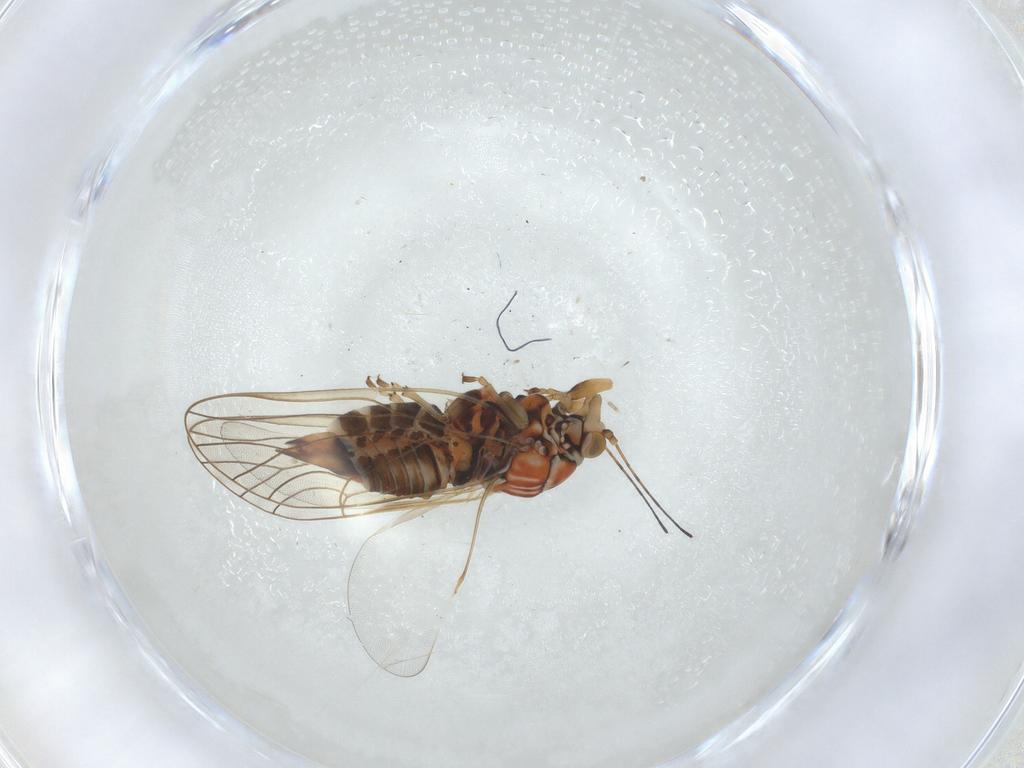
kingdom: Animalia
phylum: Arthropoda
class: Insecta
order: Hemiptera
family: Psyllidae
